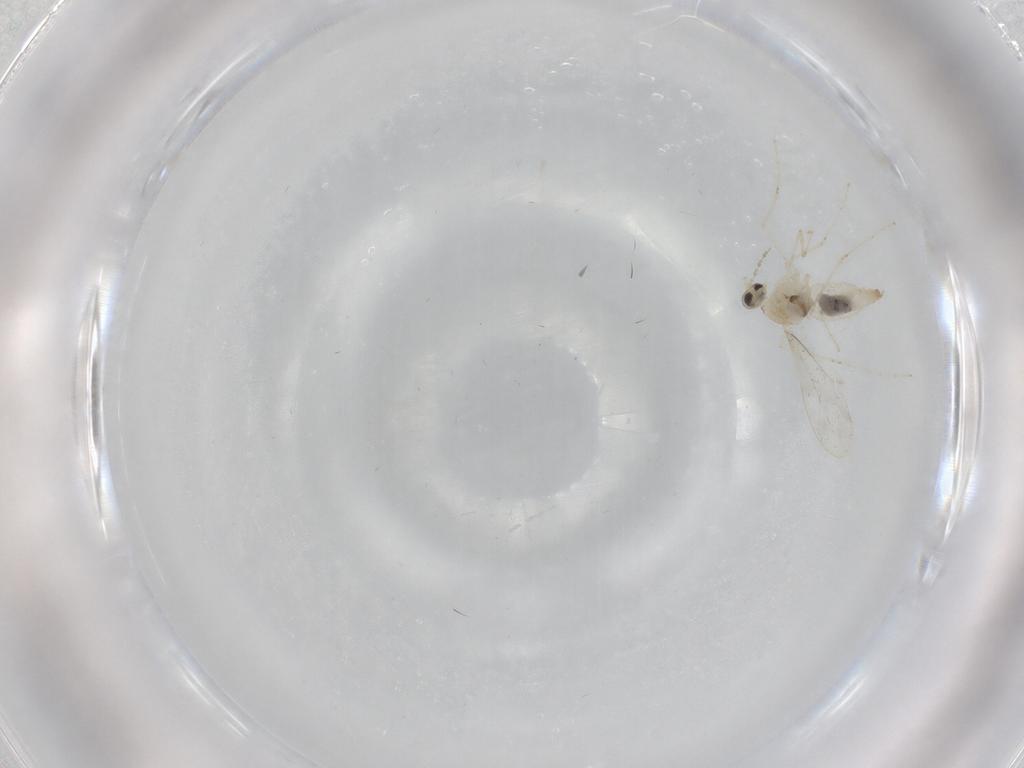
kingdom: Animalia
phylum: Arthropoda
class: Insecta
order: Diptera
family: Cecidomyiidae
